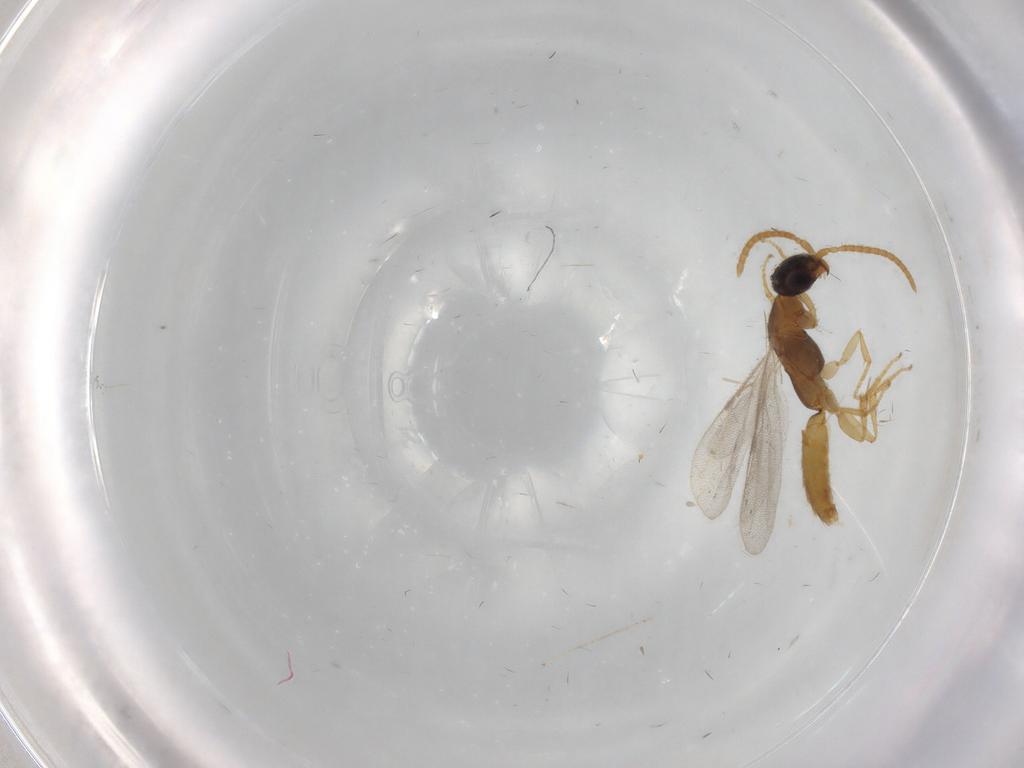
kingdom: Animalia
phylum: Arthropoda
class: Insecta
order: Hymenoptera
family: Bethylidae
